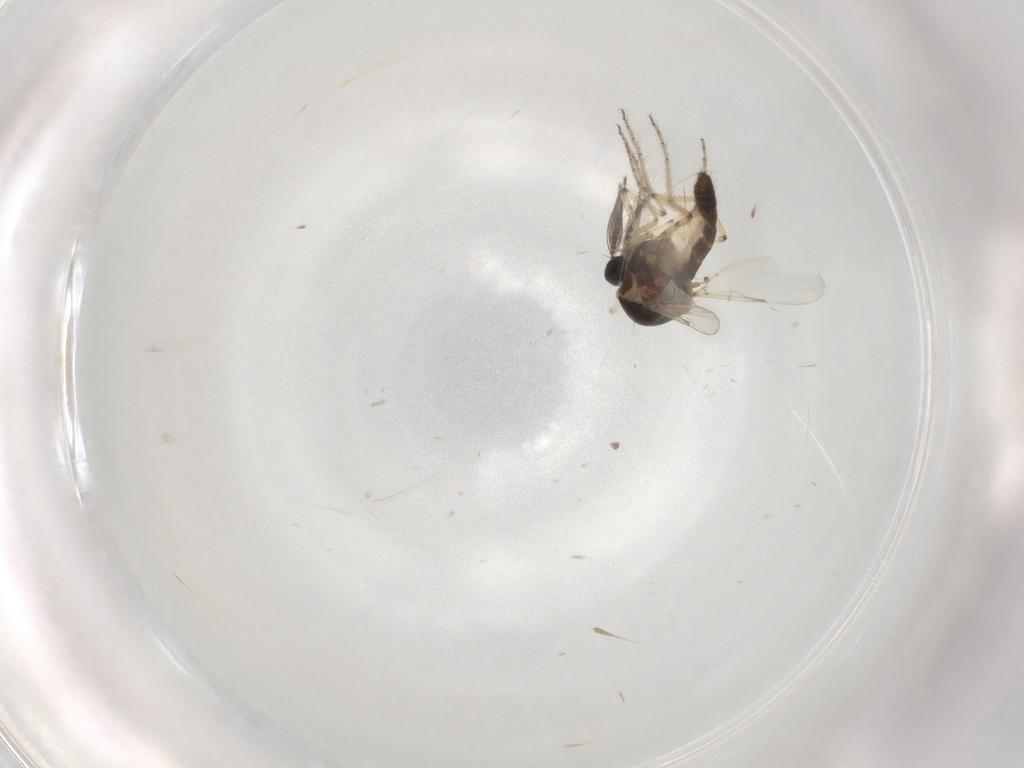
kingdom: Animalia
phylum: Arthropoda
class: Insecta
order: Diptera
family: Ceratopogonidae
